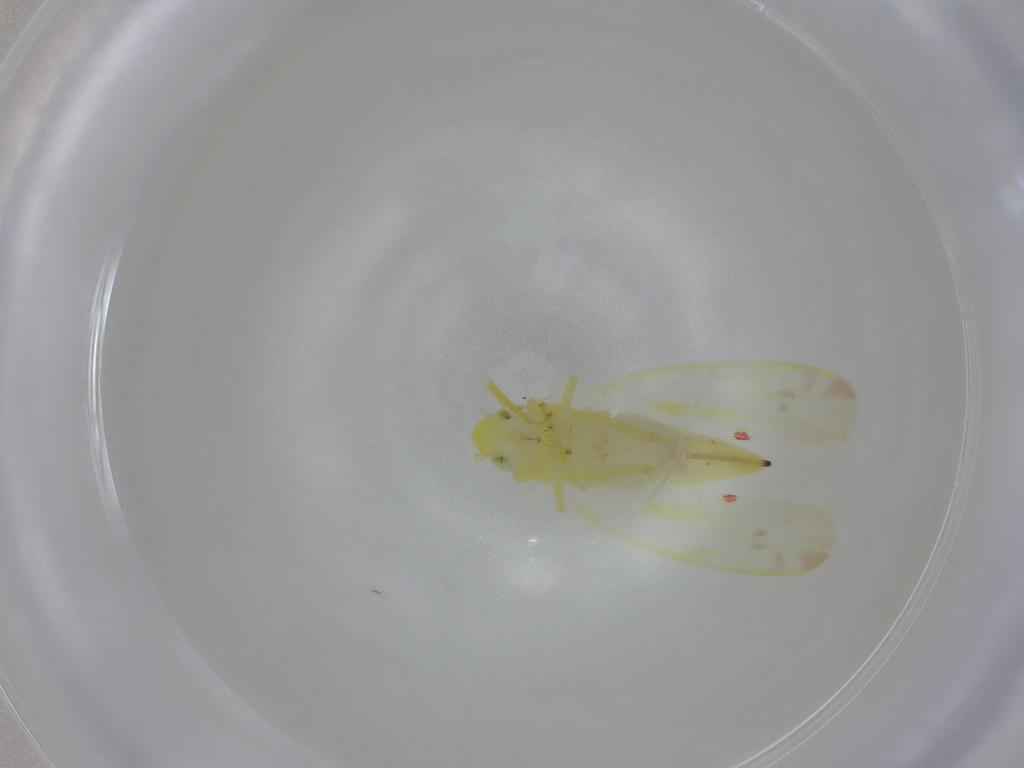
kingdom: Animalia
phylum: Arthropoda
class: Insecta
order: Hemiptera
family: Cicadellidae
